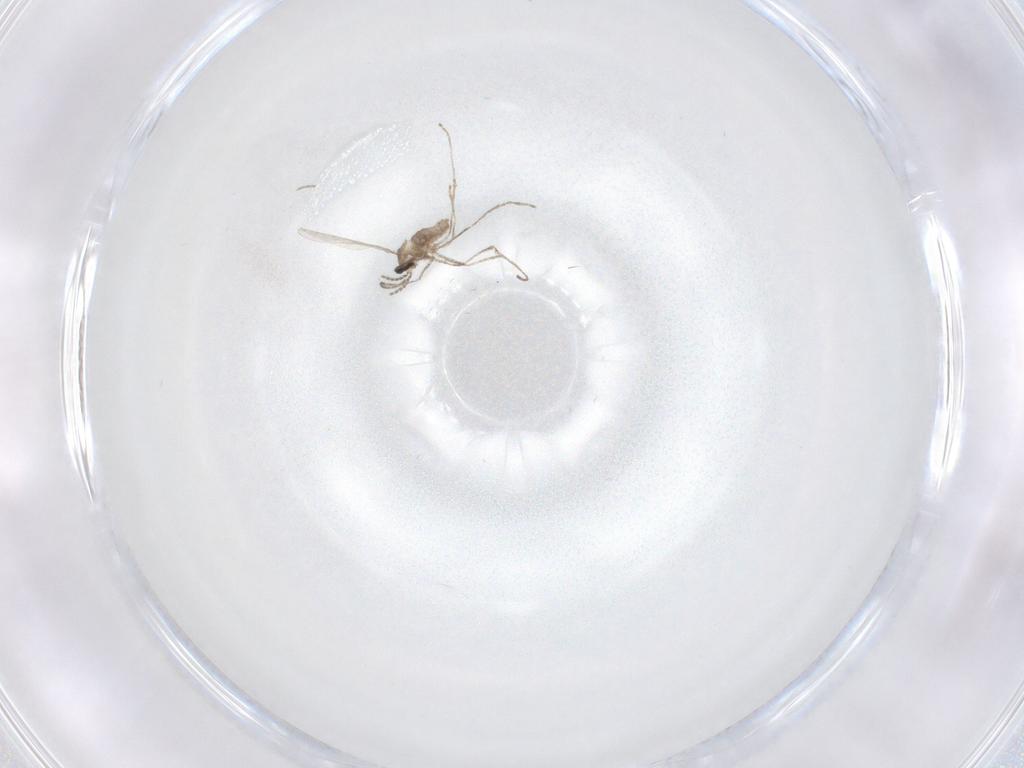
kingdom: Animalia
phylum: Arthropoda
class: Insecta
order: Diptera
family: Cecidomyiidae
